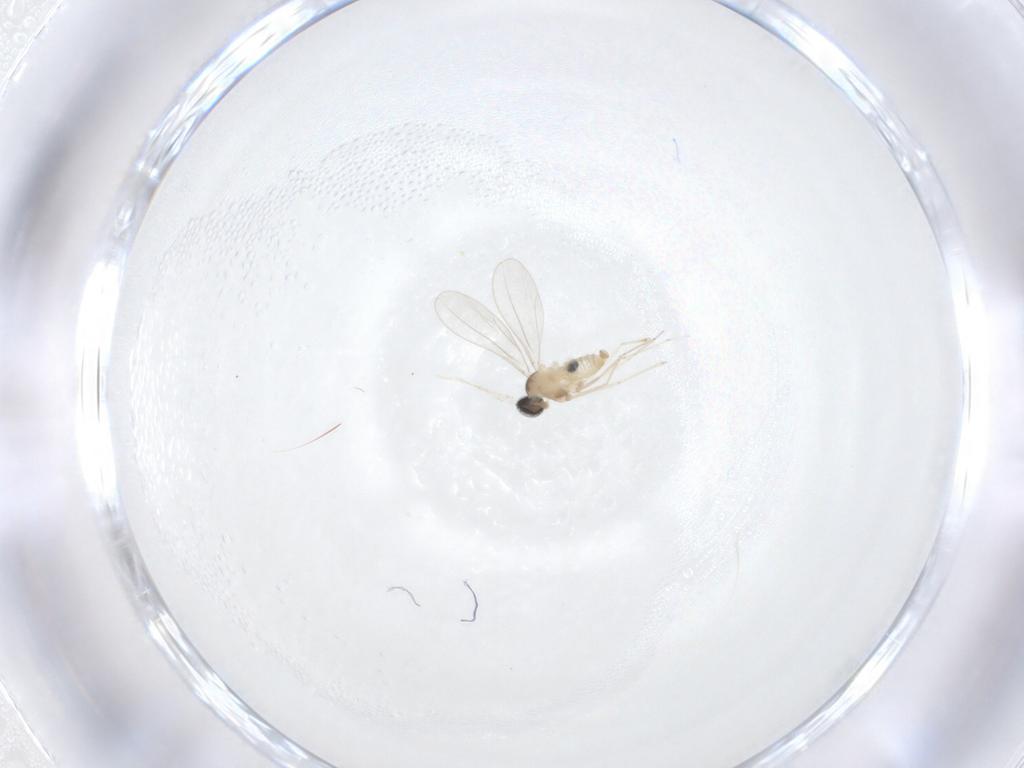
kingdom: Animalia
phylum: Arthropoda
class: Insecta
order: Diptera
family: Cecidomyiidae
